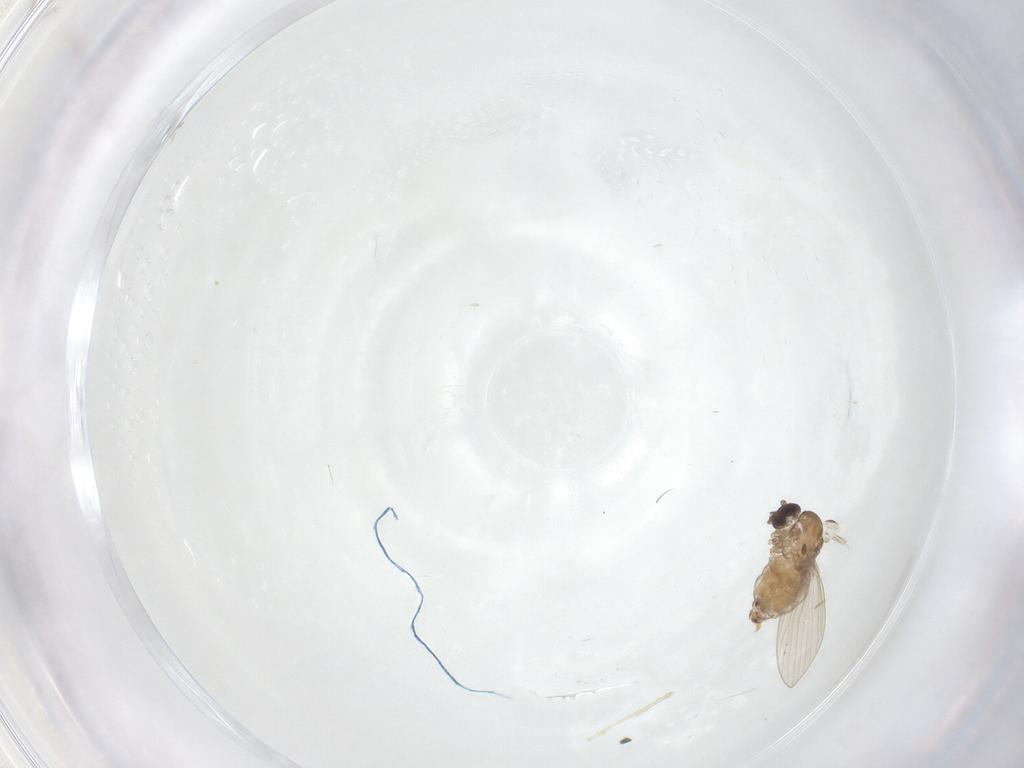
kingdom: Animalia
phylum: Arthropoda
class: Insecta
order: Diptera
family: Psychodidae
